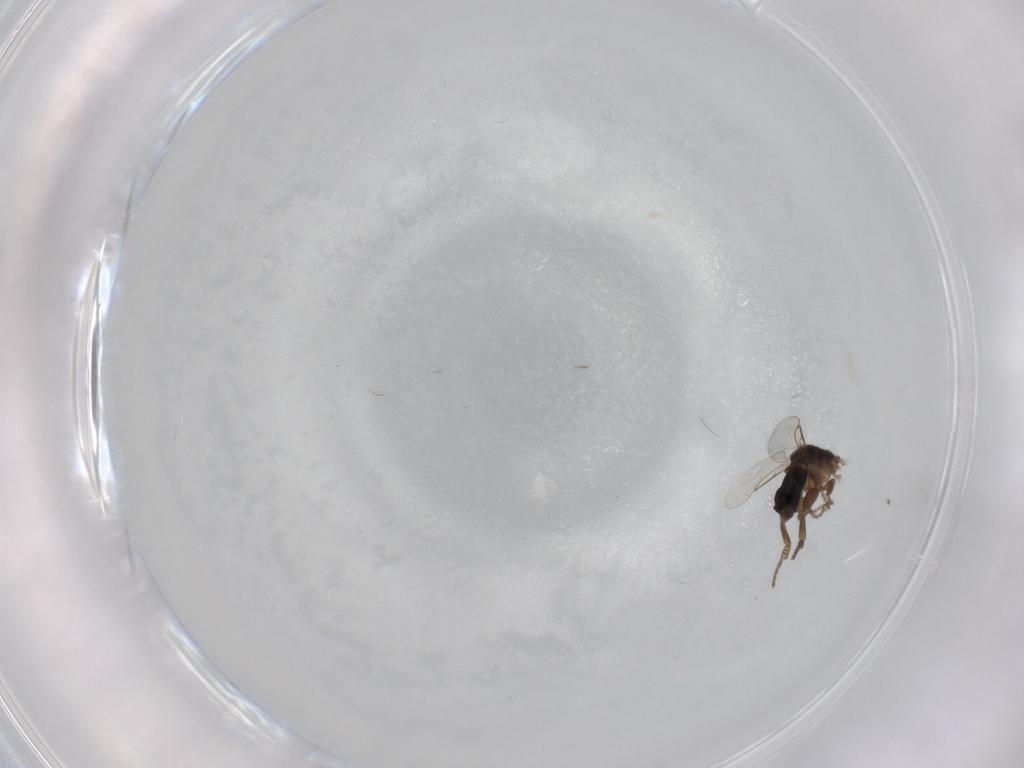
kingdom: Animalia
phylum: Arthropoda
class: Insecta
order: Diptera
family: Phoridae
